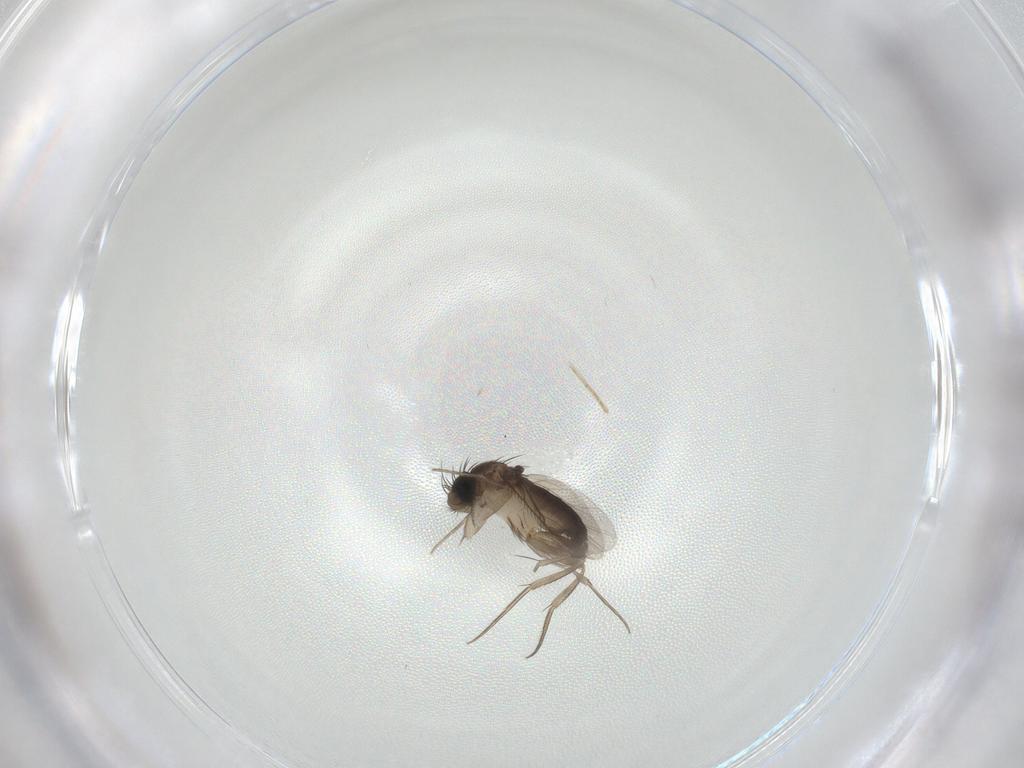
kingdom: Animalia
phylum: Arthropoda
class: Insecta
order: Diptera
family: Phoridae
